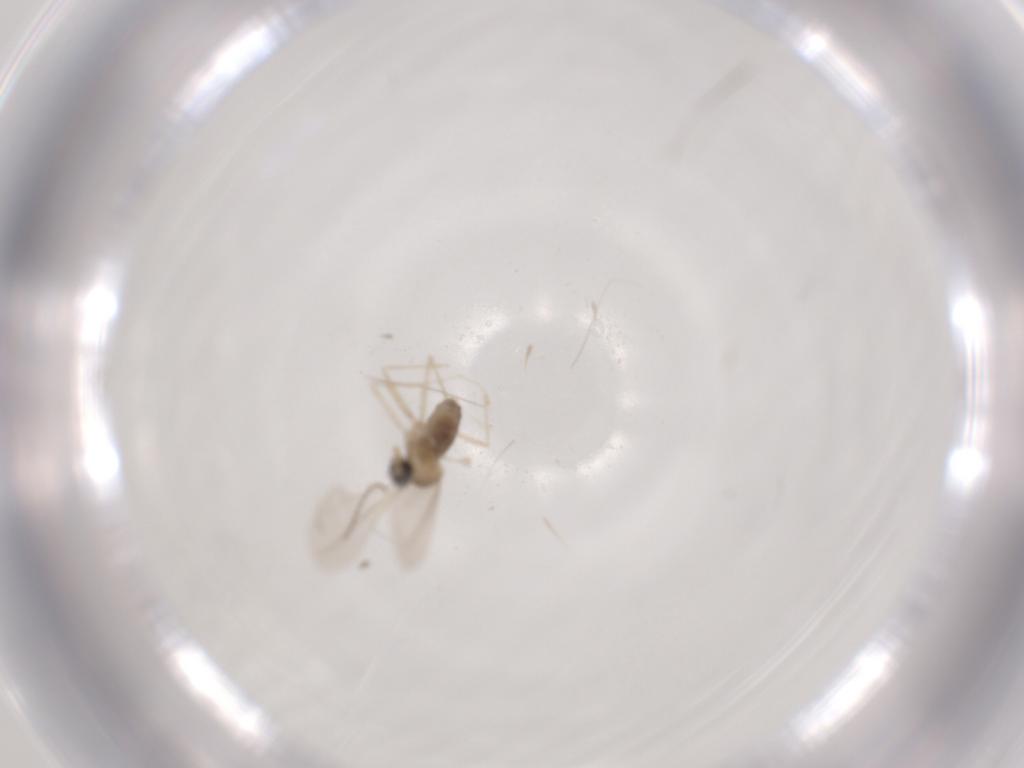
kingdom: Animalia
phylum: Arthropoda
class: Insecta
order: Diptera
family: Cecidomyiidae
